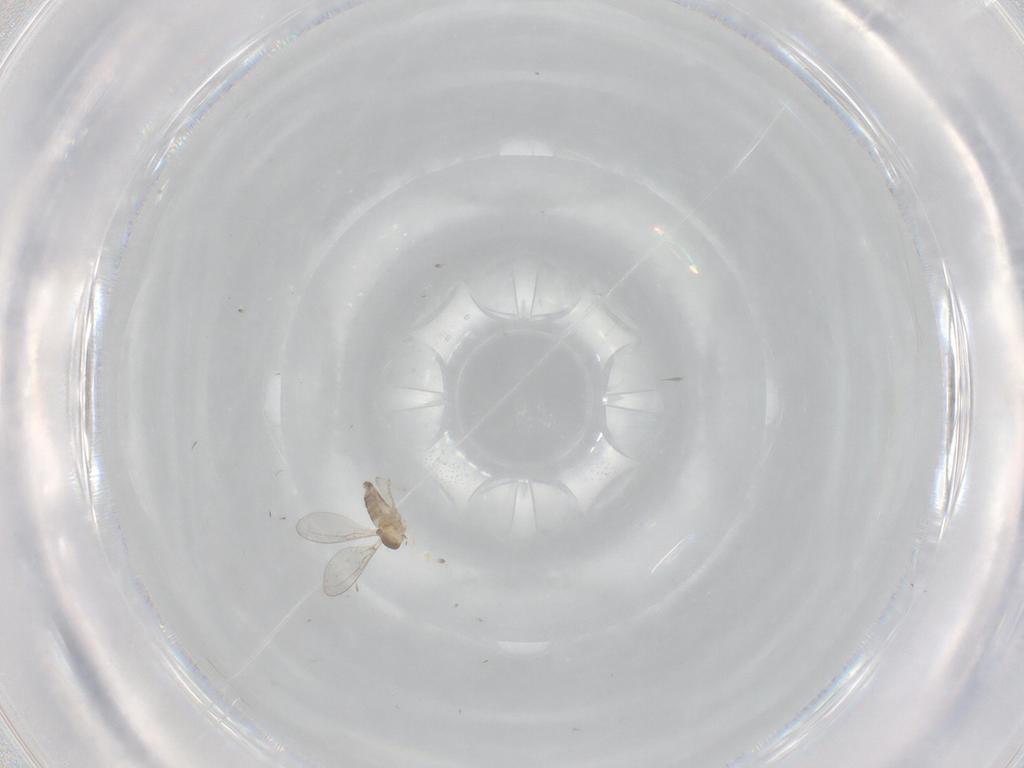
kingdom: Animalia
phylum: Arthropoda
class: Insecta
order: Diptera
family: Cecidomyiidae
